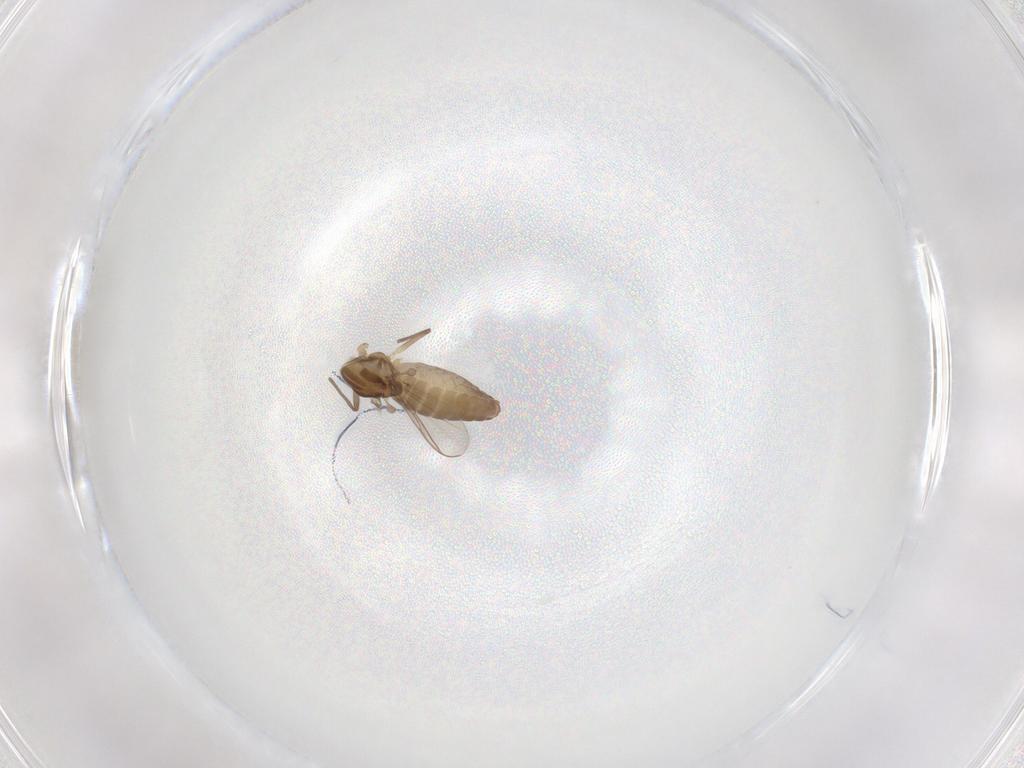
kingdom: Animalia
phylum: Arthropoda
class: Insecta
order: Diptera
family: Chironomidae
